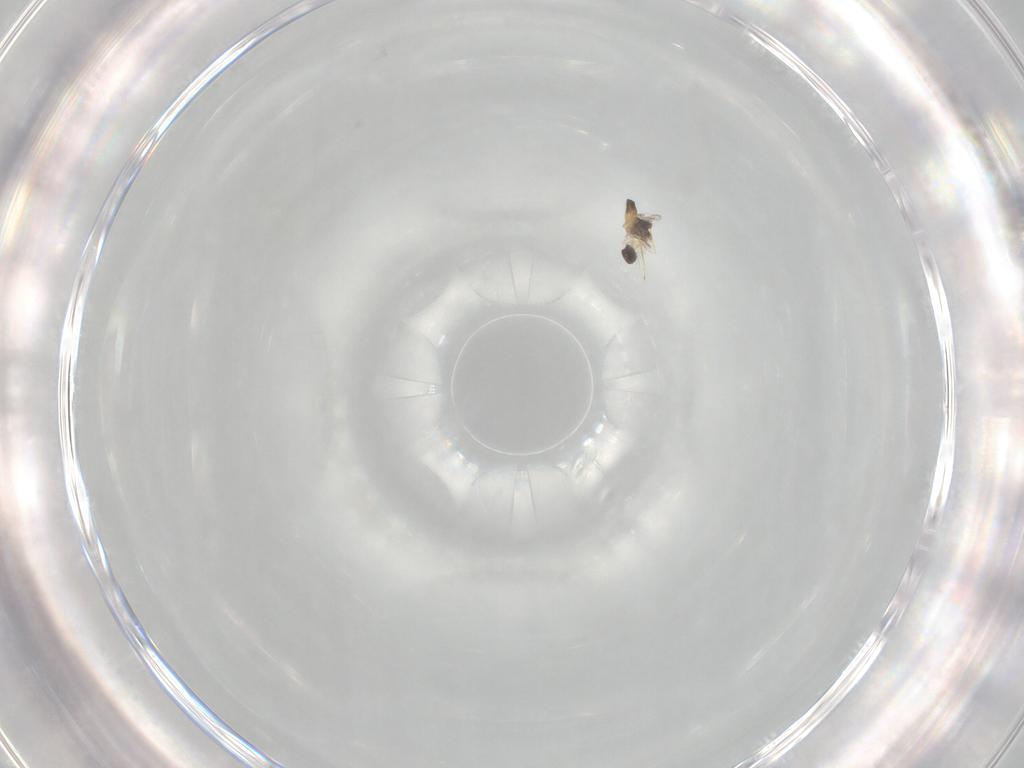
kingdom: Animalia
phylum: Arthropoda
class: Insecta
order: Hymenoptera
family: Mymaridae
